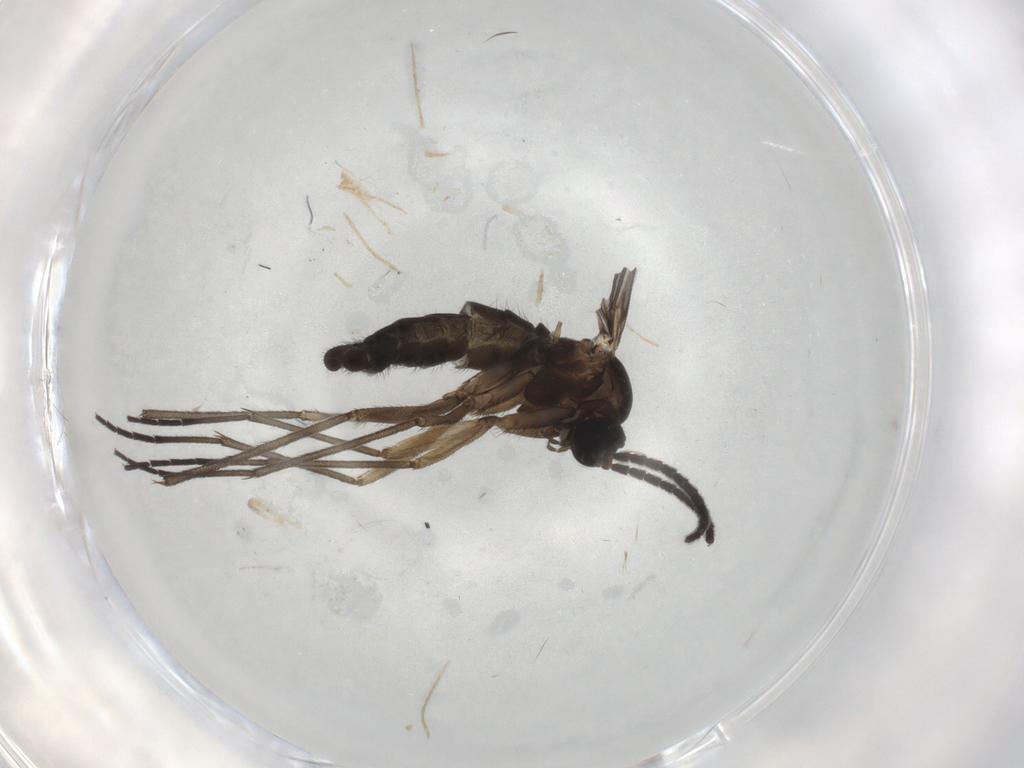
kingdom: Animalia
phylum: Arthropoda
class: Insecta
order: Diptera
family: Sciaridae
